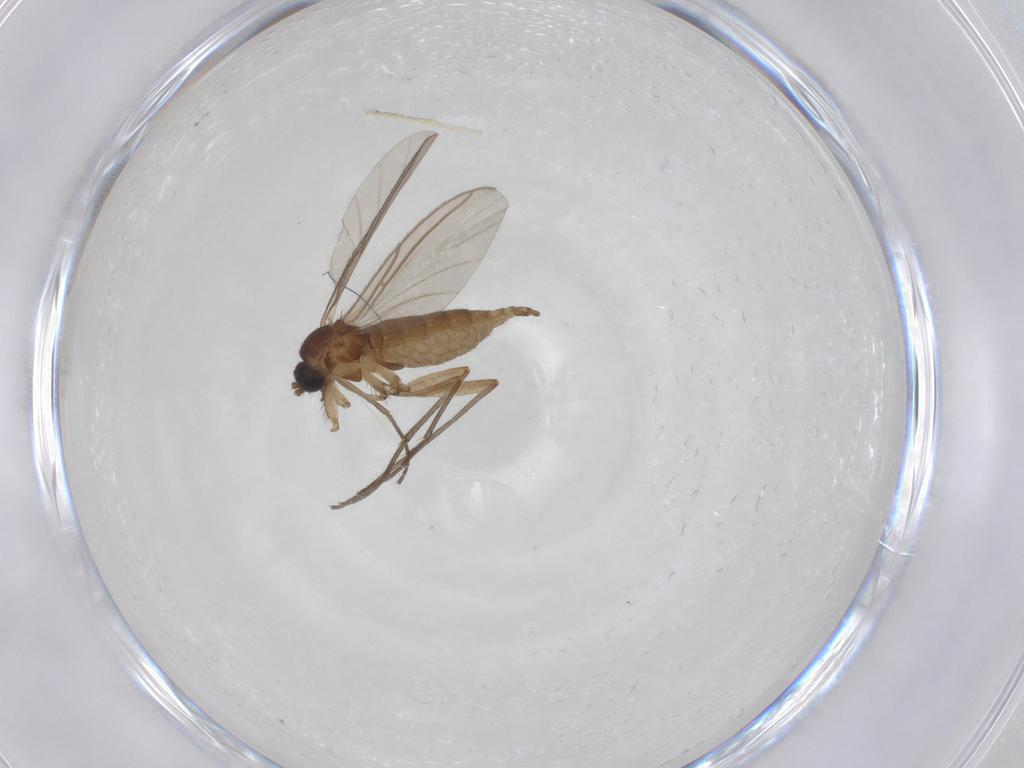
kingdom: Animalia
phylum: Arthropoda
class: Insecta
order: Diptera
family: Sciaridae
